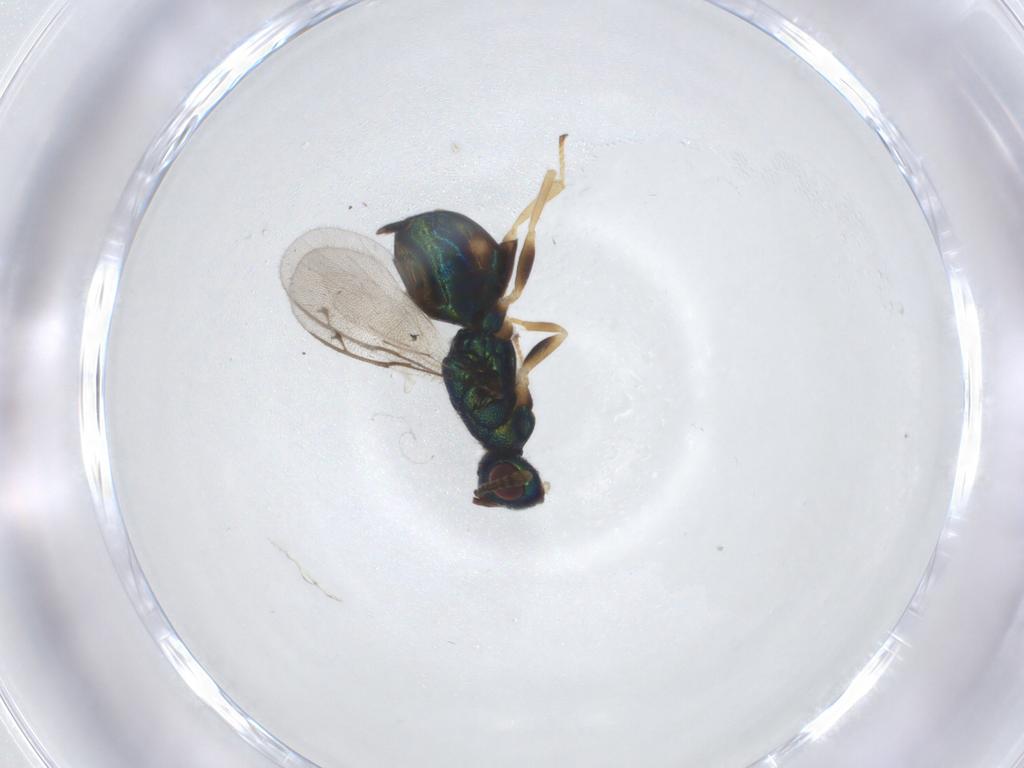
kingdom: Animalia
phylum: Arthropoda
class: Insecta
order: Hymenoptera
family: Eulophidae
